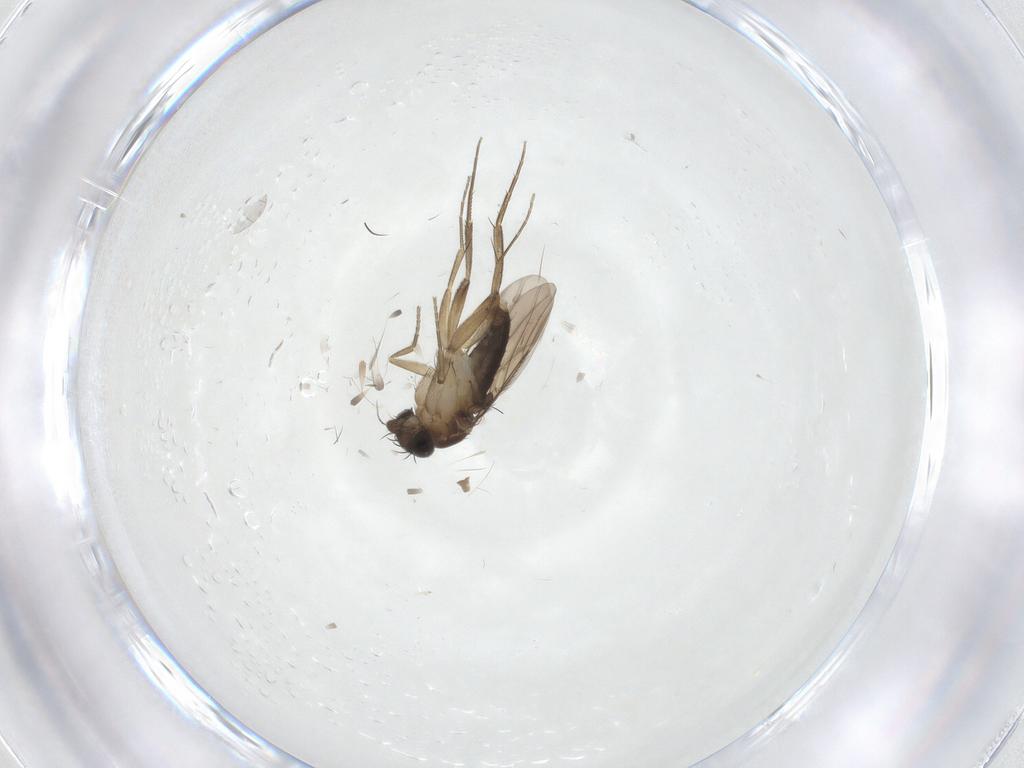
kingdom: Animalia
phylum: Arthropoda
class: Insecta
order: Diptera
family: Phoridae
